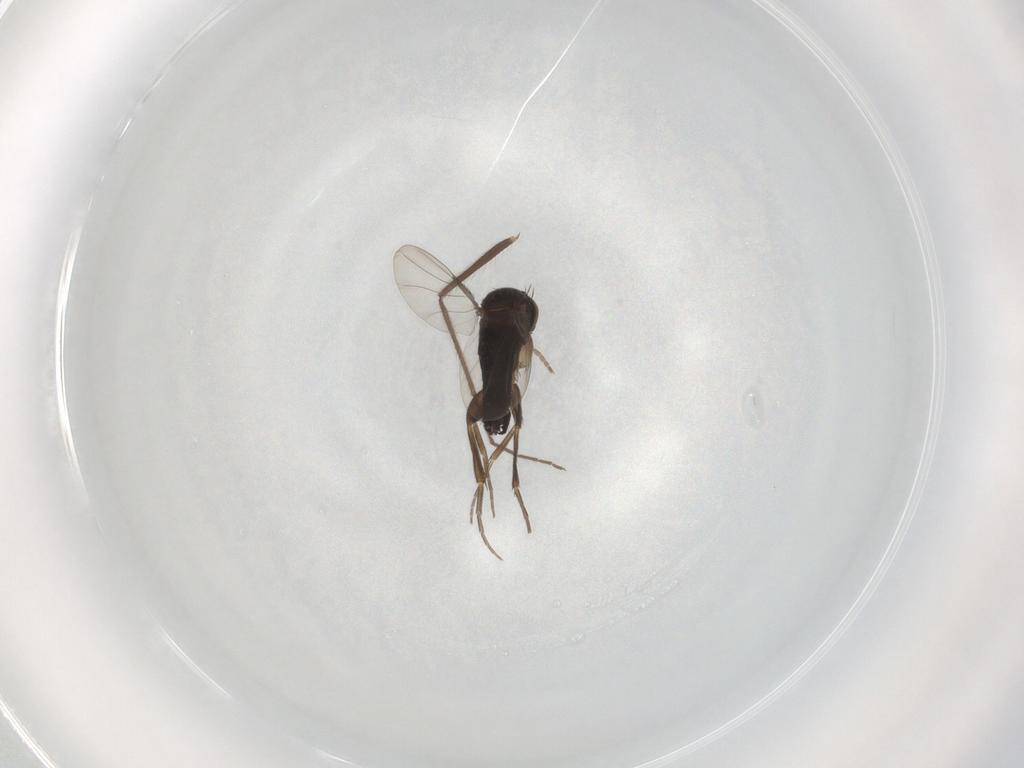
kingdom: Animalia
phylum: Arthropoda
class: Insecta
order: Diptera
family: Phoridae
